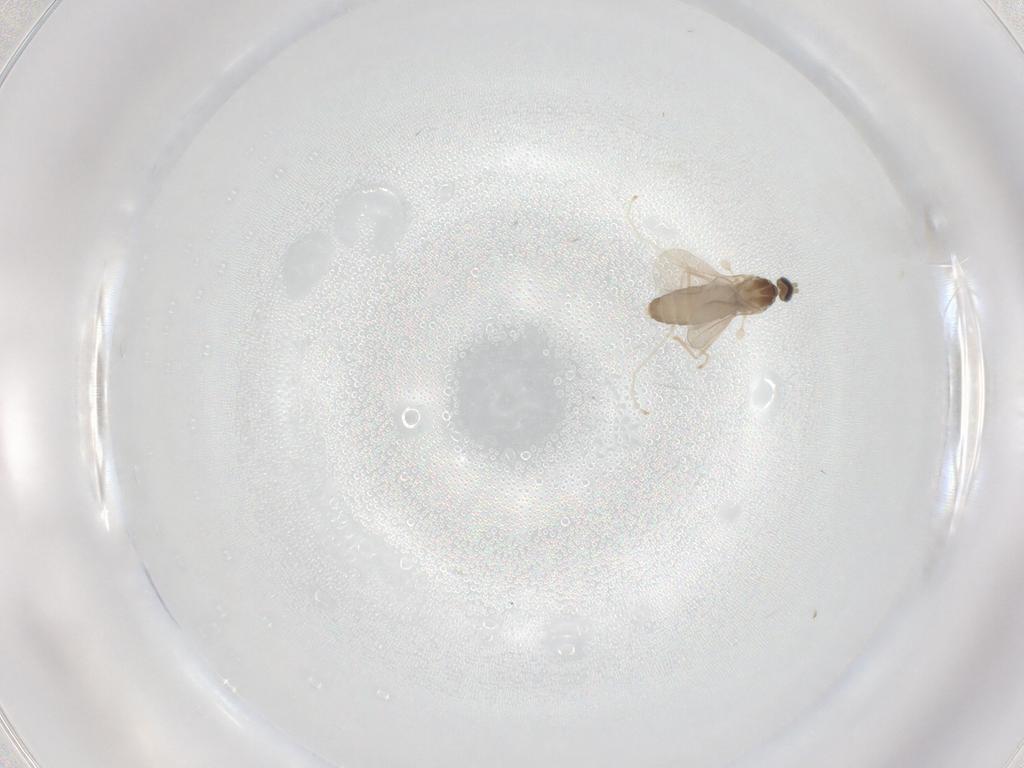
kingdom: Animalia
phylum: Arthropoda
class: Insecta
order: Diptera
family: Cecidomyiidae
